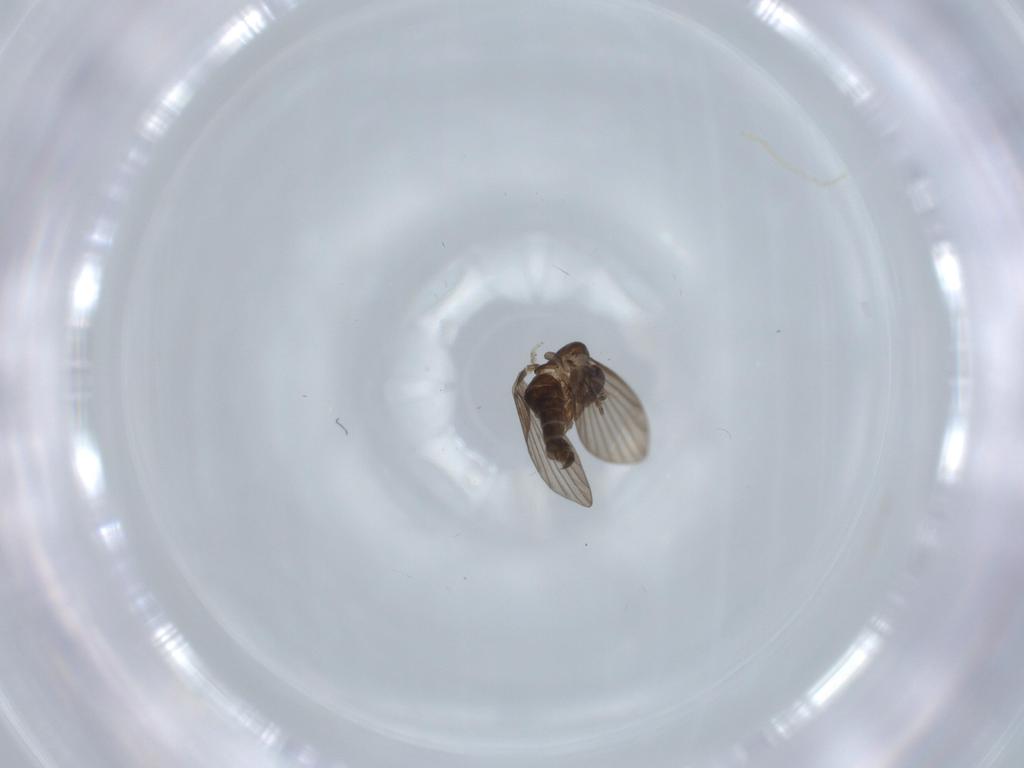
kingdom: Animalia
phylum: Arthropoda
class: Insecta
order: Diptera
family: Psychodidae
